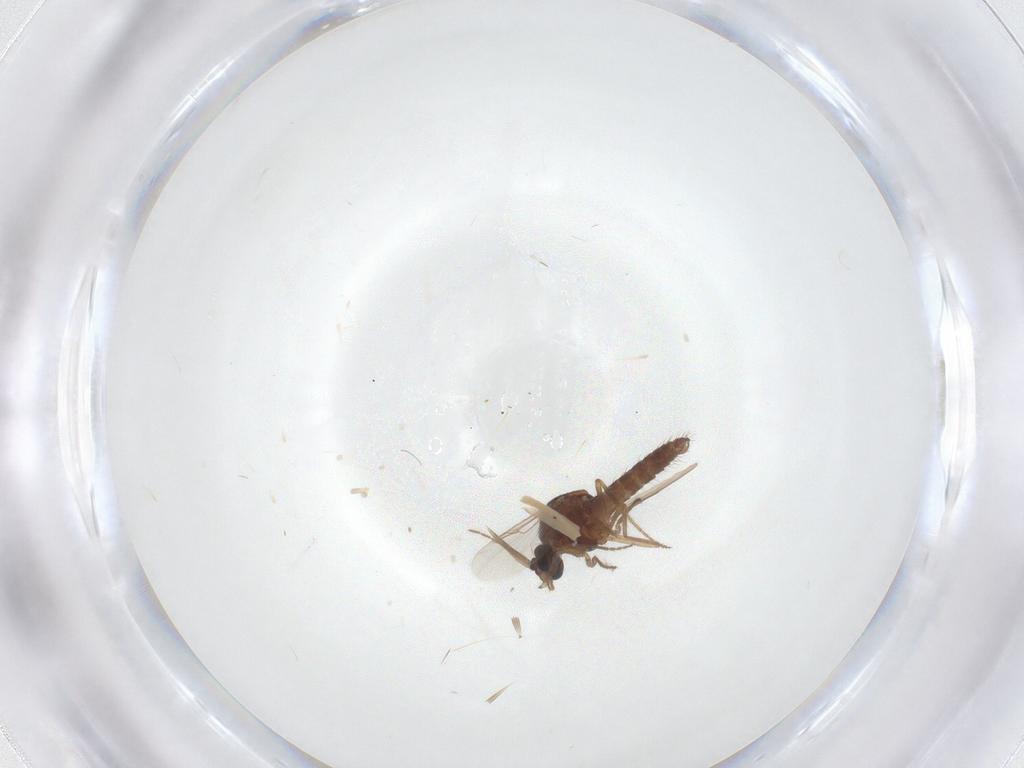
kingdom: Animalia
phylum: Arthropoda
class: Insecta
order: Diptera
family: Ceratopogonidae
